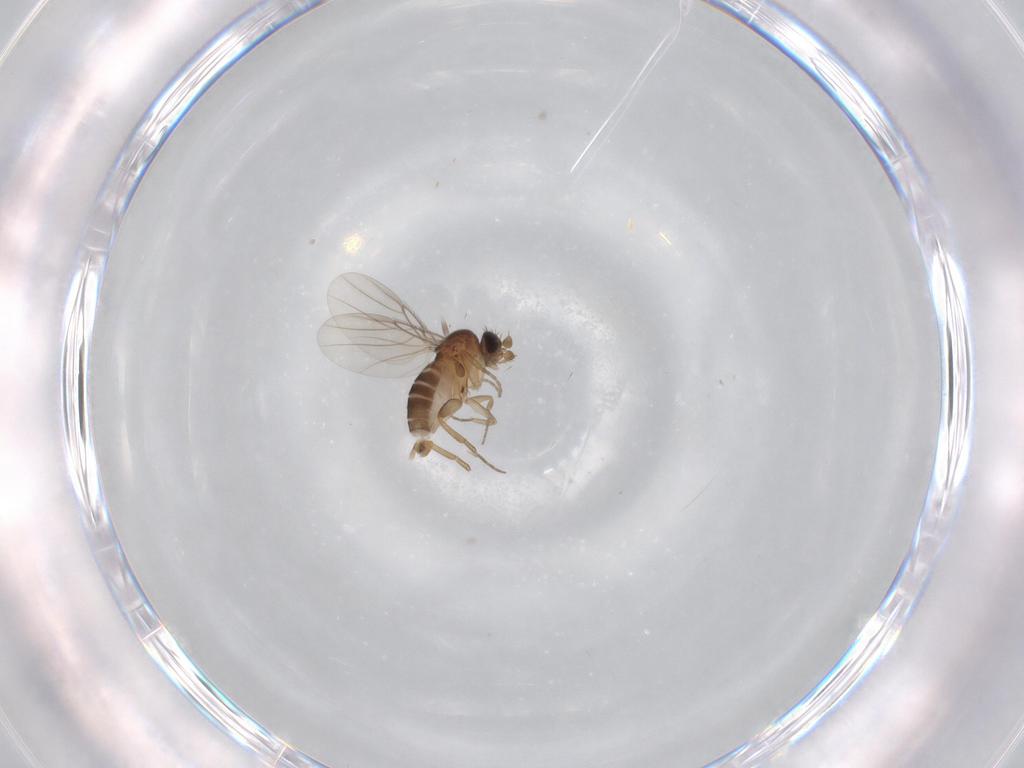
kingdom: Animalia
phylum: Arthropoda
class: Insecta
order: Diptera
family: Phoridae
